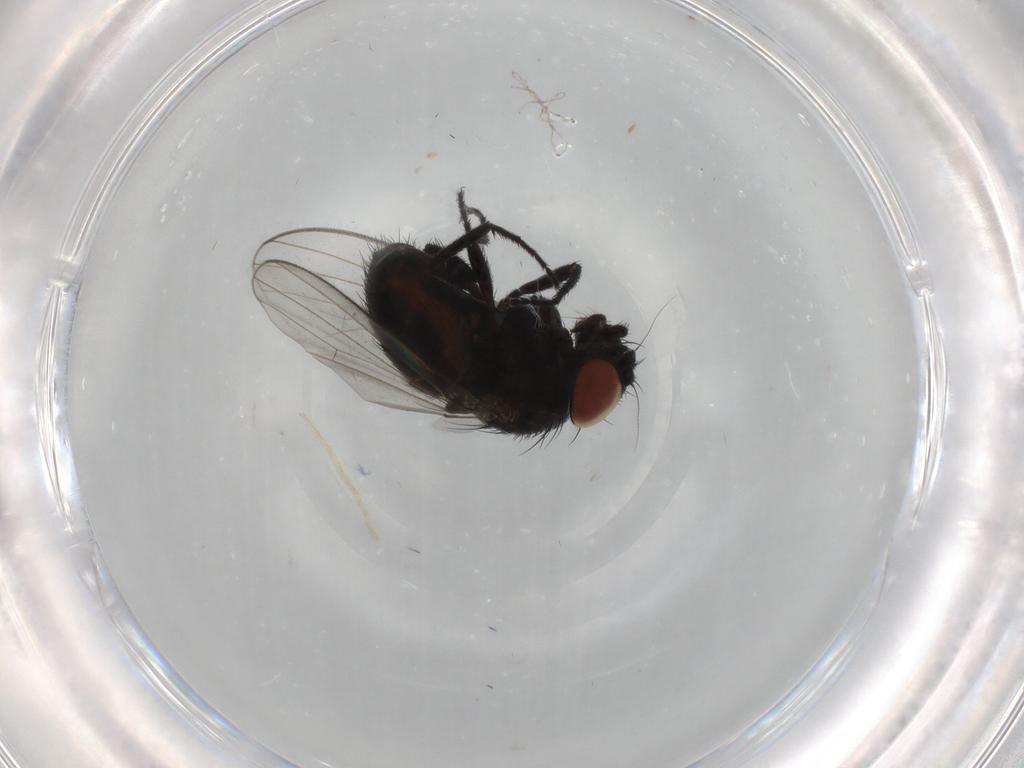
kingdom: Animalia
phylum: Arthropoda
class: Insecta
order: Diptera
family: Milichiidae
